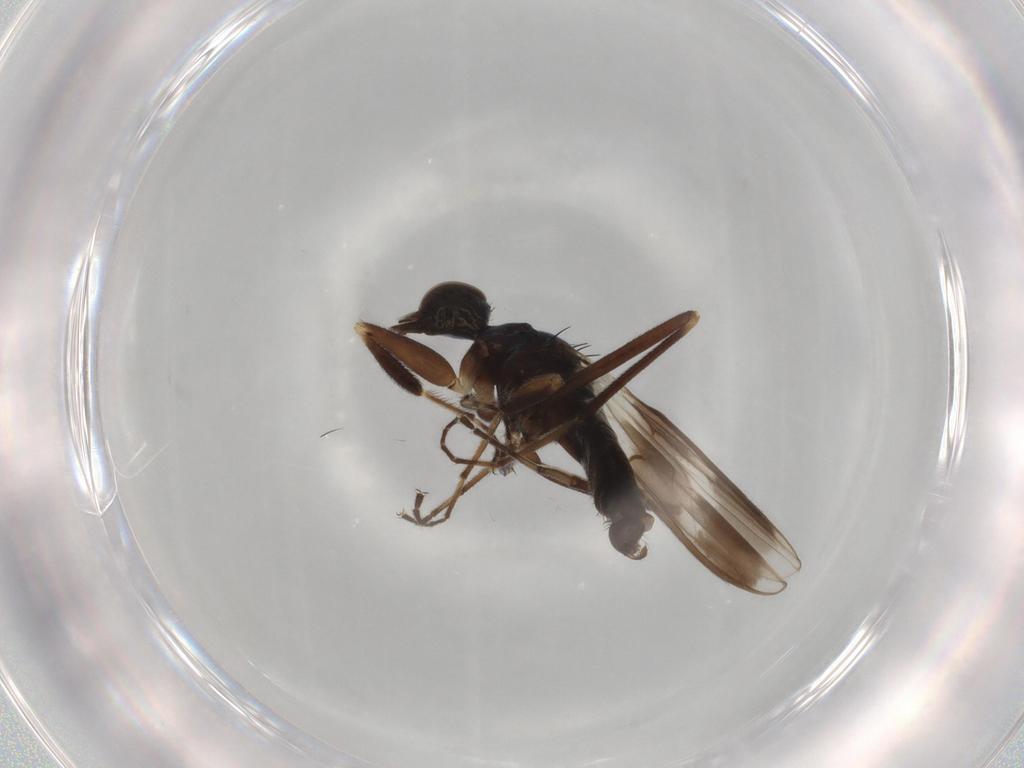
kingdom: Animalia
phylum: Arthropoda
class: Insecta
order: Diptera
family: Hybotidae
